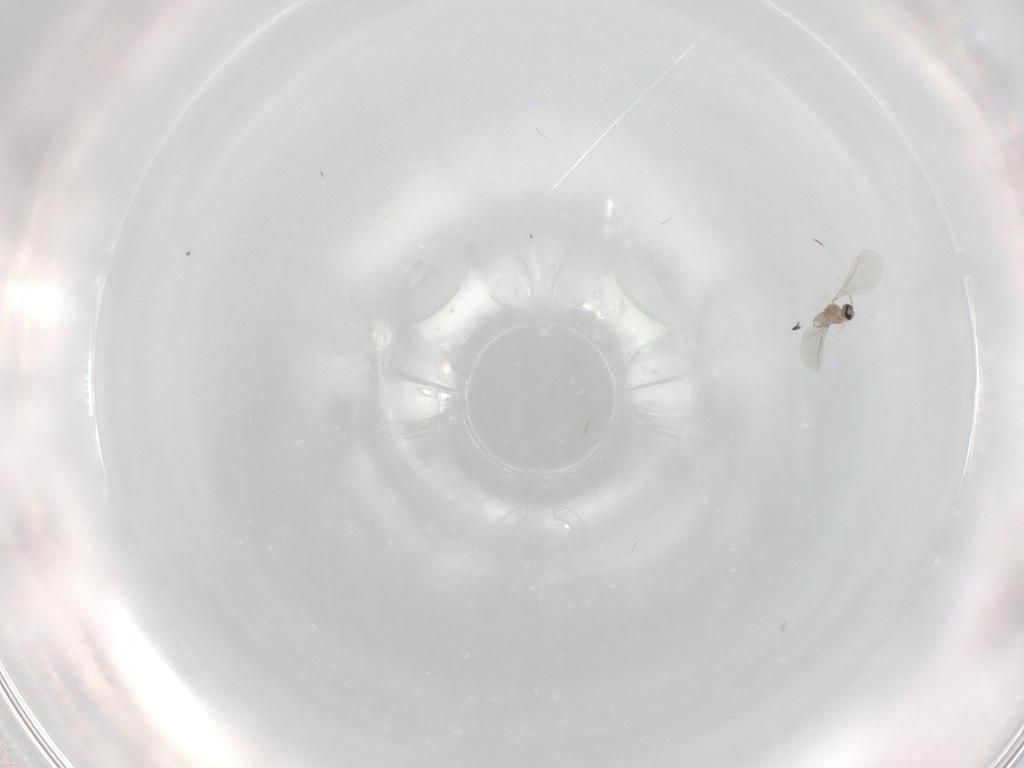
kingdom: Animalia
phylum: Arthropoda
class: Insecta
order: Diptera
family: Cecidomyiidae
